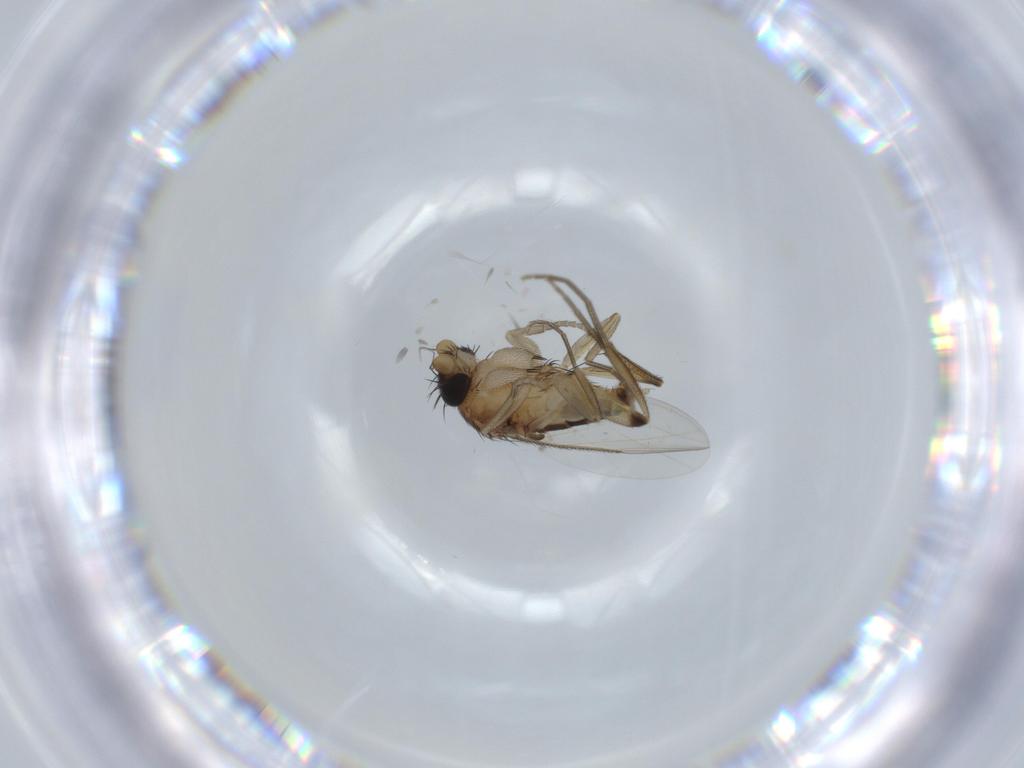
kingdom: Animalia
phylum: Arthropoda
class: Insecta
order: Diptera
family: Phoridae
